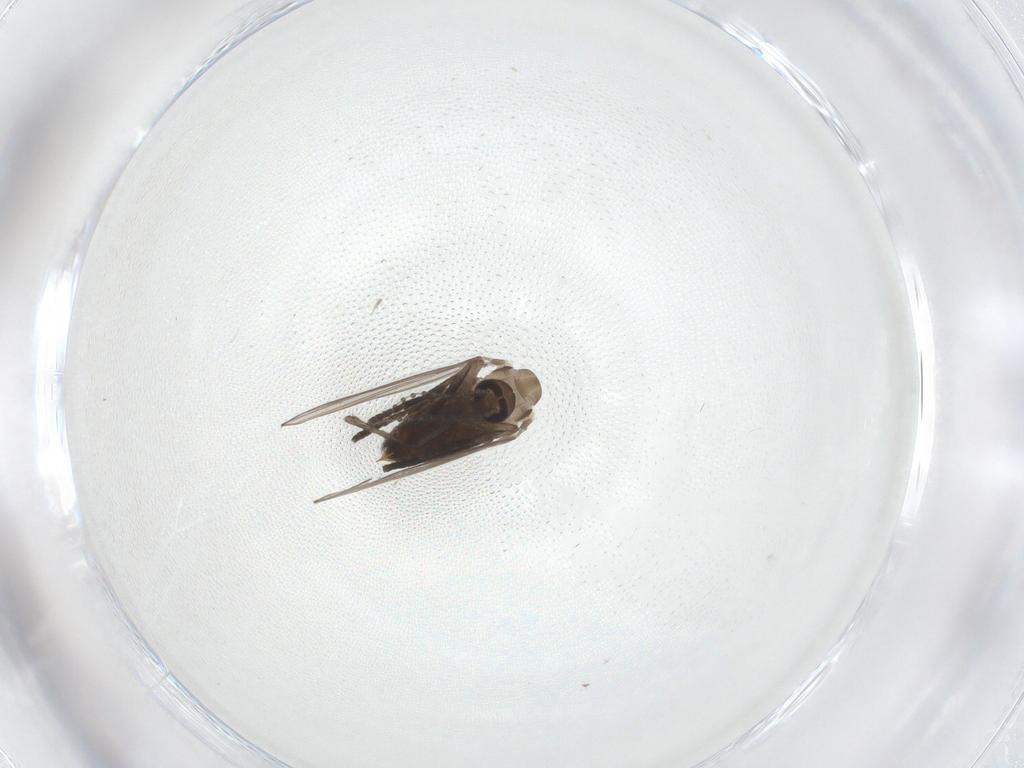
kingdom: Animalia
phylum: Arthropoda
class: Insecta
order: Diptera
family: Psychodidae
